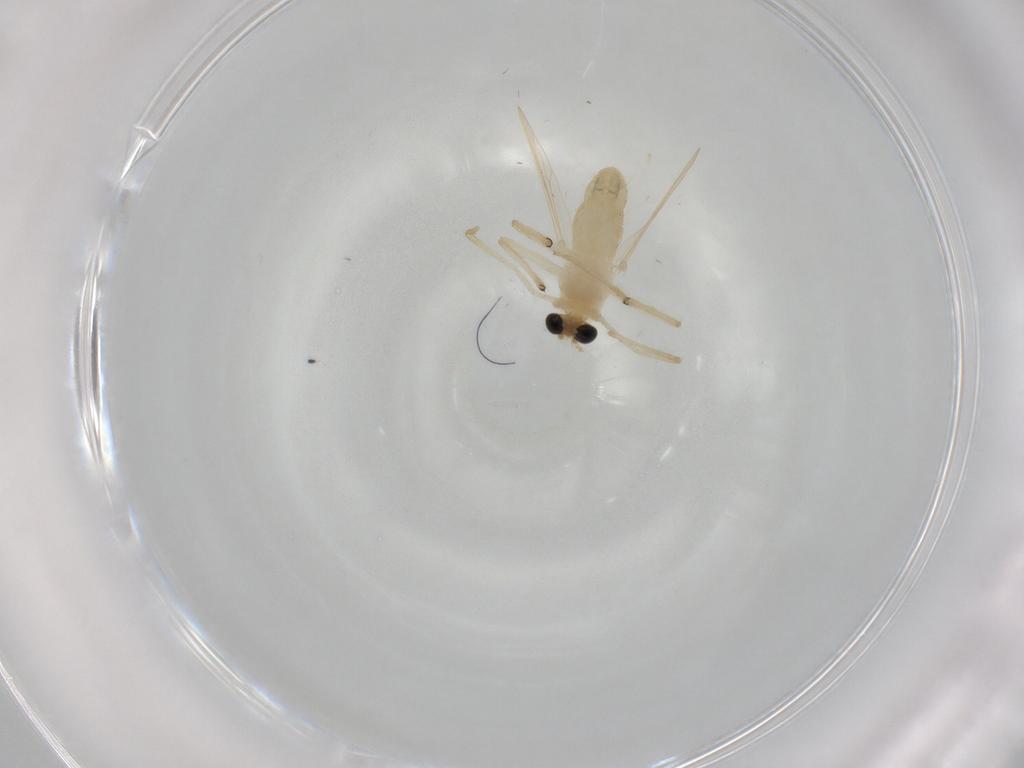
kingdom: Animalia
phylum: Arthropoda
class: Insecta
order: Diptera
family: Chironomidae
